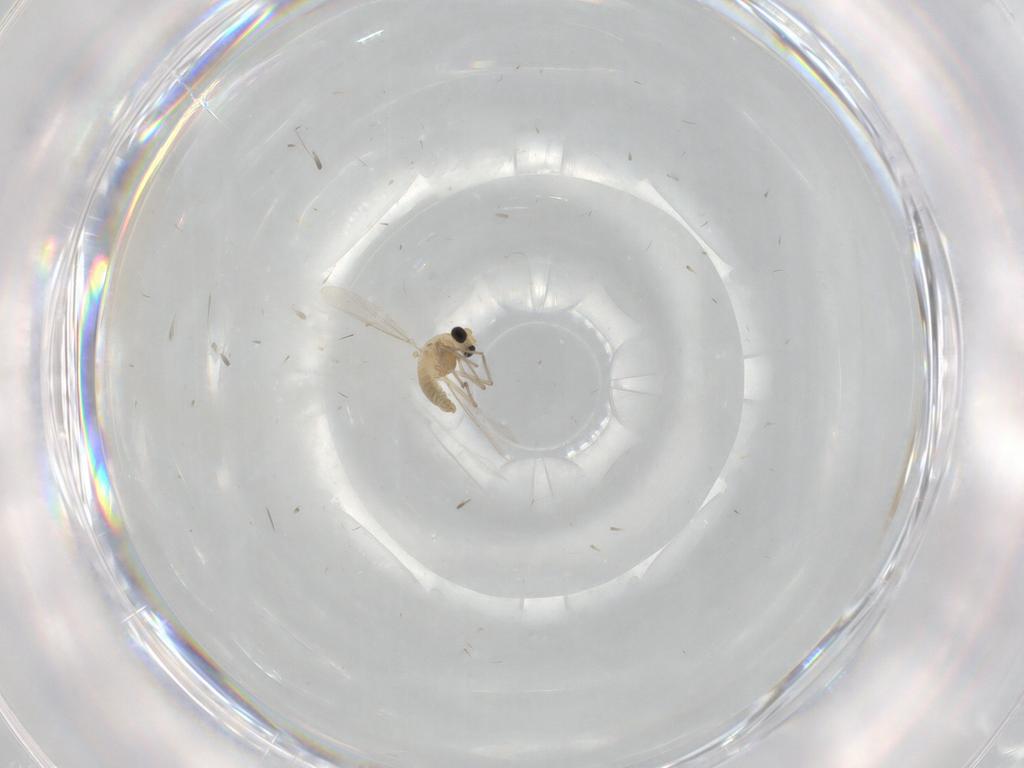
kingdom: Animalia
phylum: Arthropoda
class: Insecta
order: Diptera
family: Chironomidae
